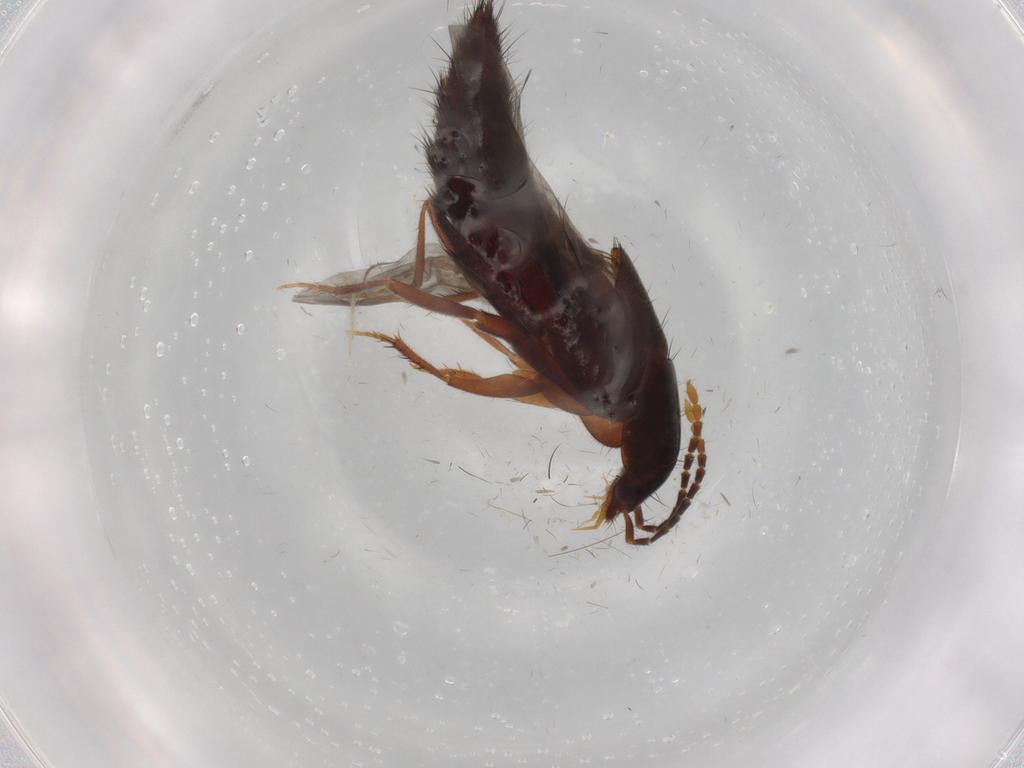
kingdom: Animalia
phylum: Arthropoda
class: Insecta
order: Coleoptera
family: Staphylinidae
